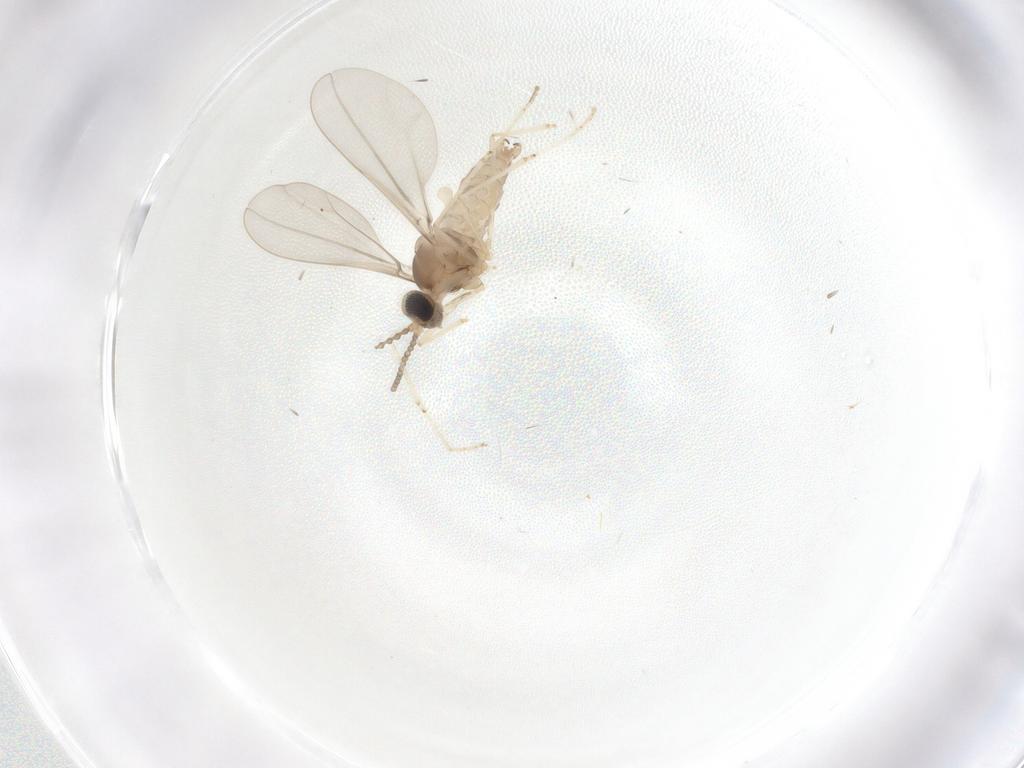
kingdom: Animalia
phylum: Arthropoda
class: Insecta
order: Diptera
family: Cecidomyiidae
